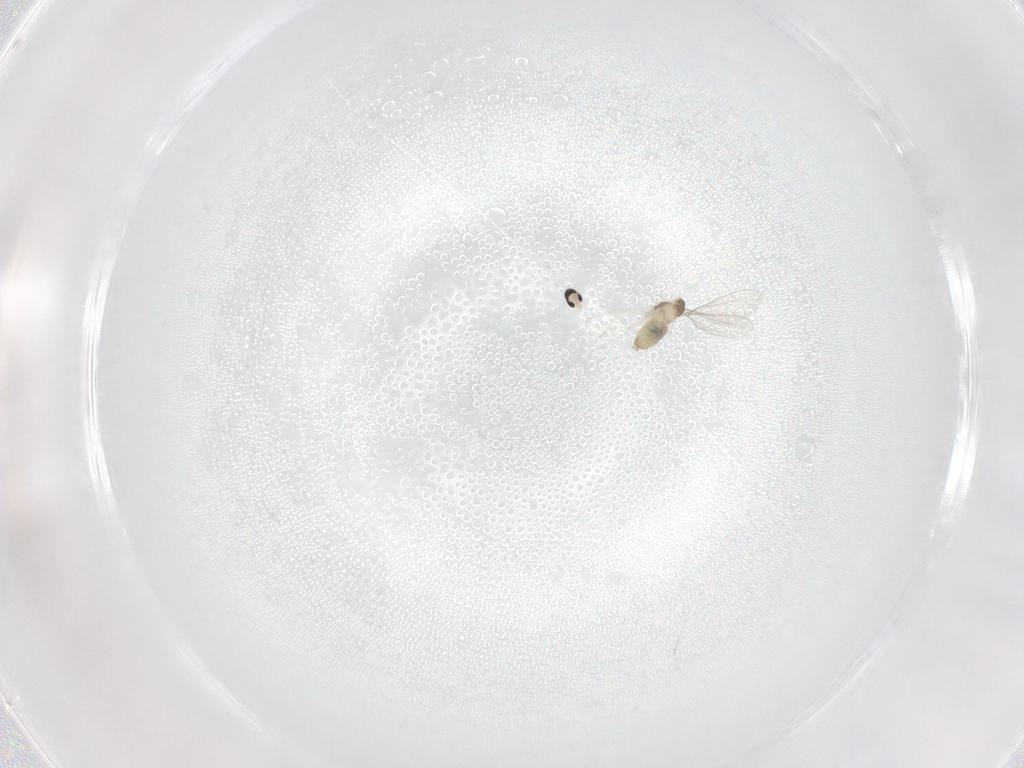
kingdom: Animalia
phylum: Arthropoda
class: Insecta
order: Diptera
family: Cecidomyiidae
